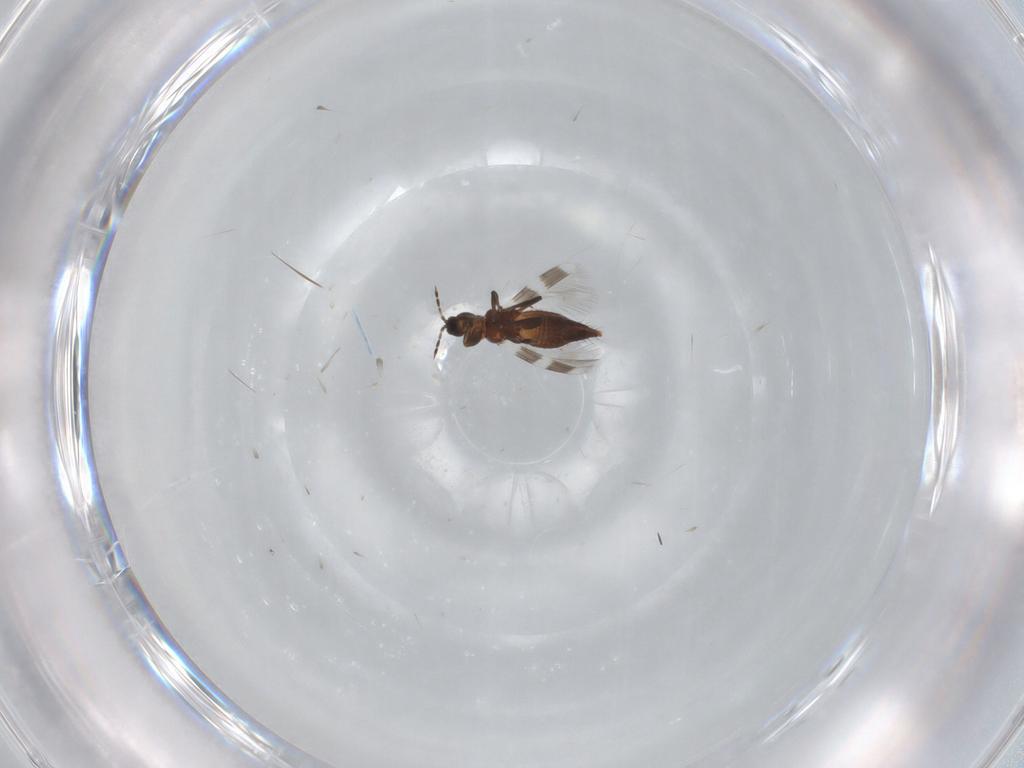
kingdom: Animalia
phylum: Arthropoda
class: Insecta
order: Thysanoptera
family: Aeolothripidae
